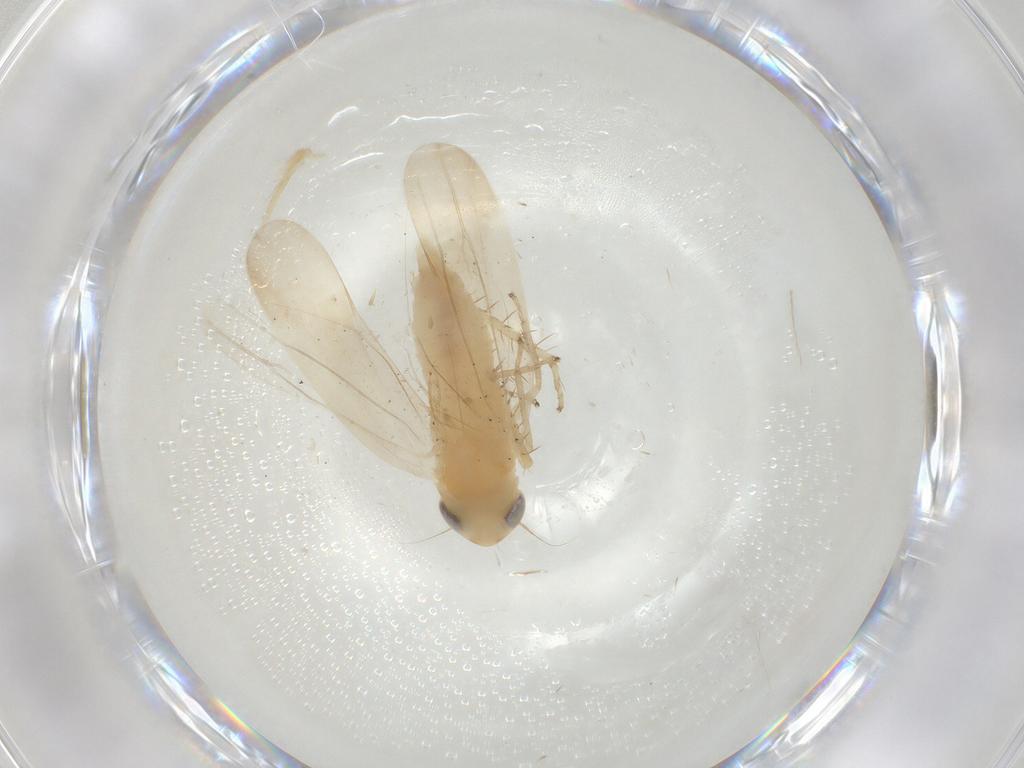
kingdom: Animalia
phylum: Arthropoda
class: Insecta
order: Hemiptera
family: Cicadellidae
